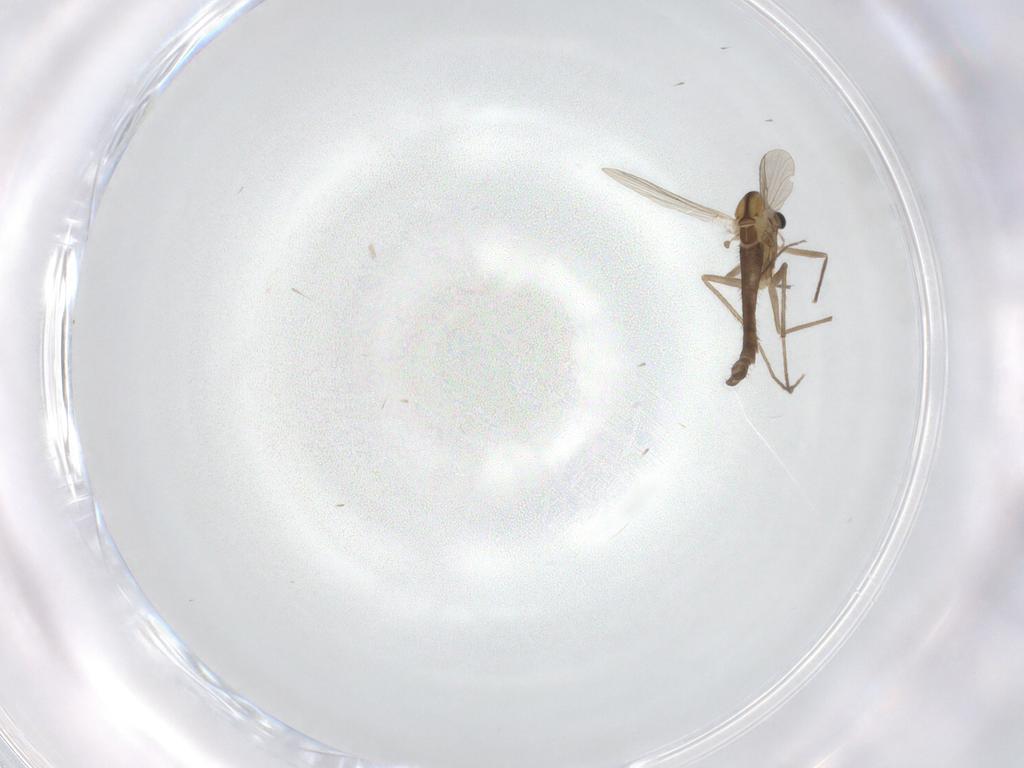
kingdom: Animalia
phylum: Arthropoda
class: Insecta
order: Diptera
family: Chironomidae
